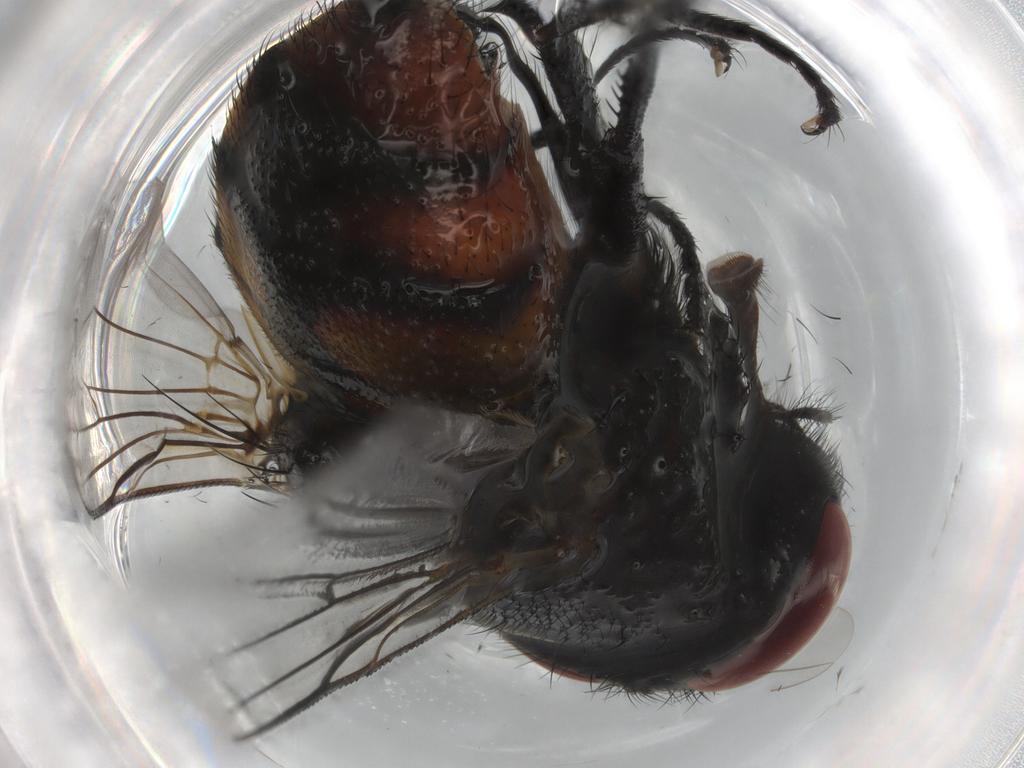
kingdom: Animalia
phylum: Arthropoda
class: Insecta
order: Diptera
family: Muscidae
